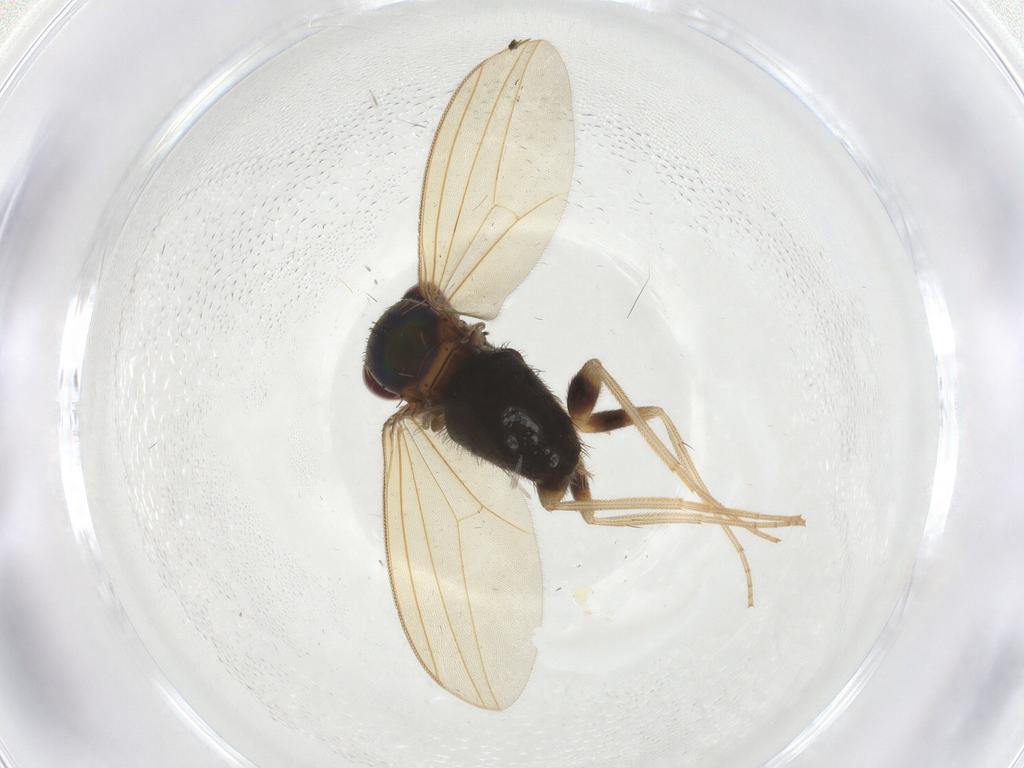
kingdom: Animalia
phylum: Arthropoda
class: Insecta
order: Diptera
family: Dolichopodidae
